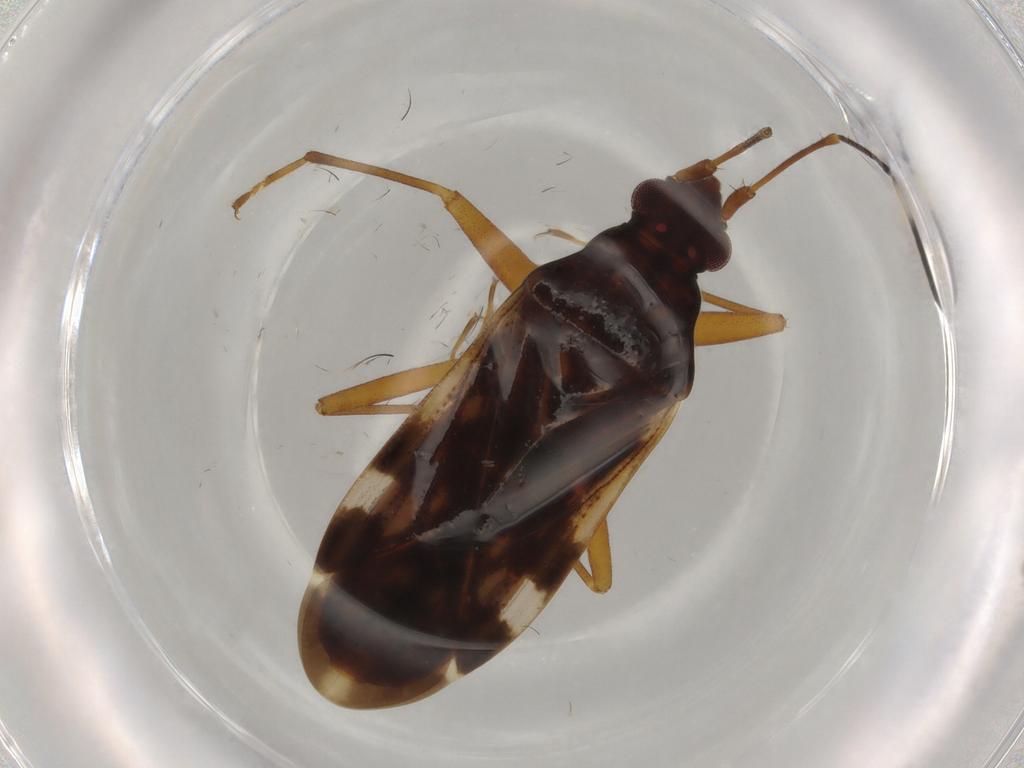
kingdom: Animalia
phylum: Arthropoda
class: Insecta
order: Hemiptera
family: Rhyparochromidae
